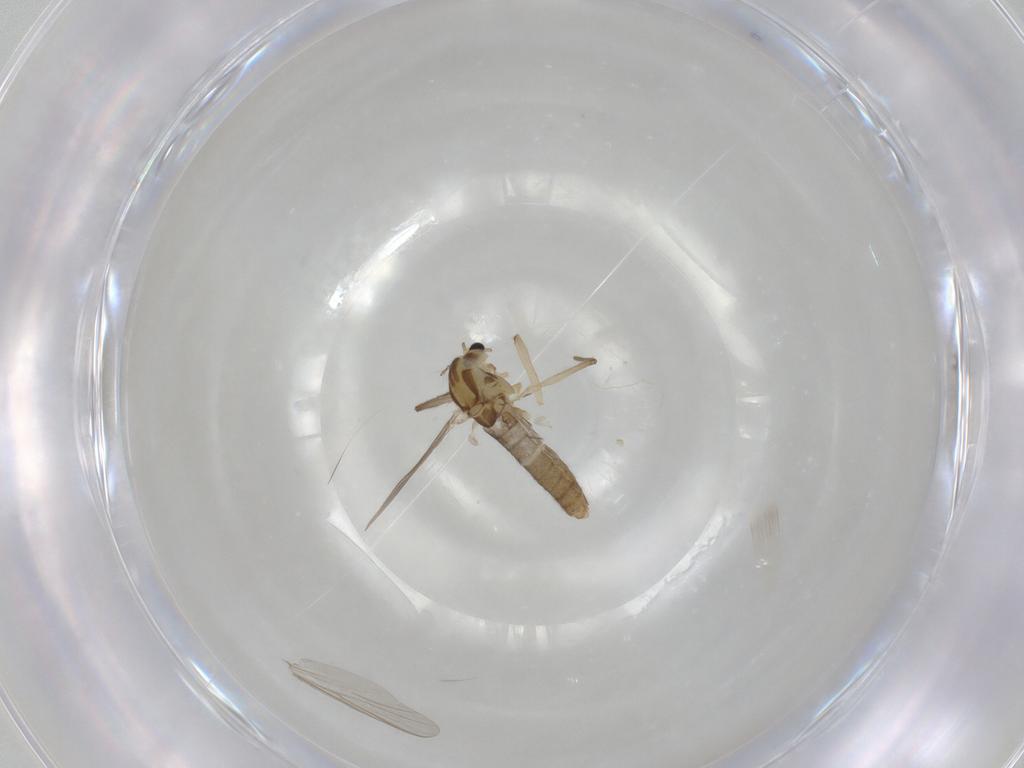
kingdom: Animalia
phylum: Arthropoda
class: Insecta
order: Diptera
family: Chironomidae
